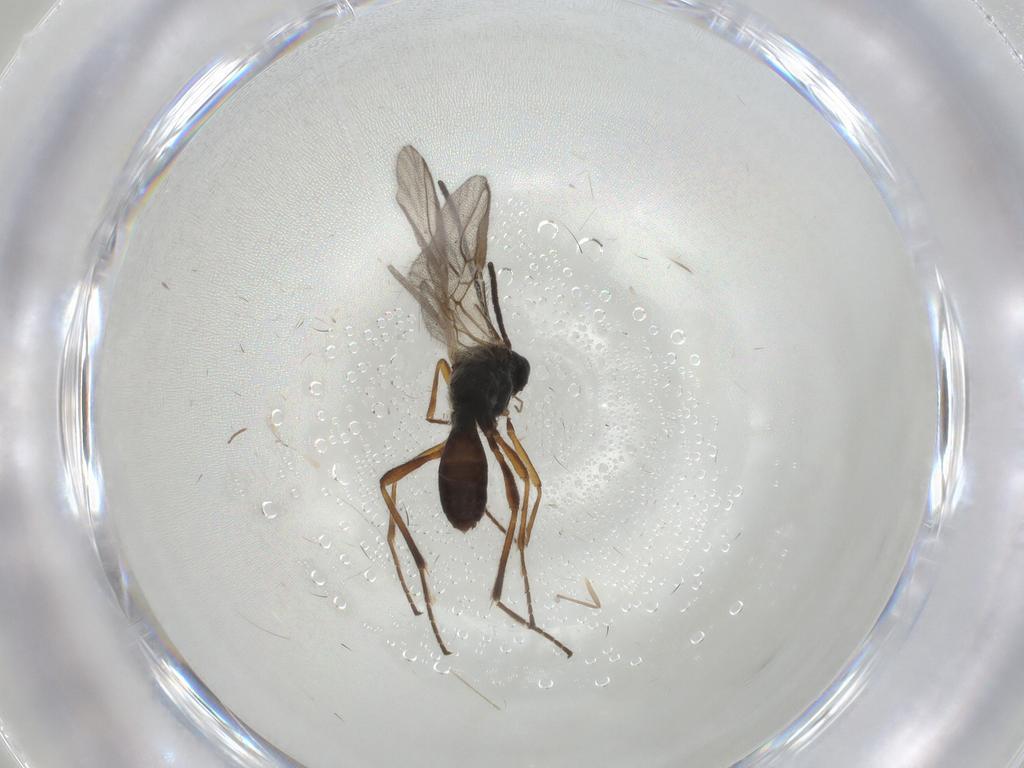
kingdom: Animalia
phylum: Arthropoda
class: Insecta
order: Hymenoptera
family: Braconidae
